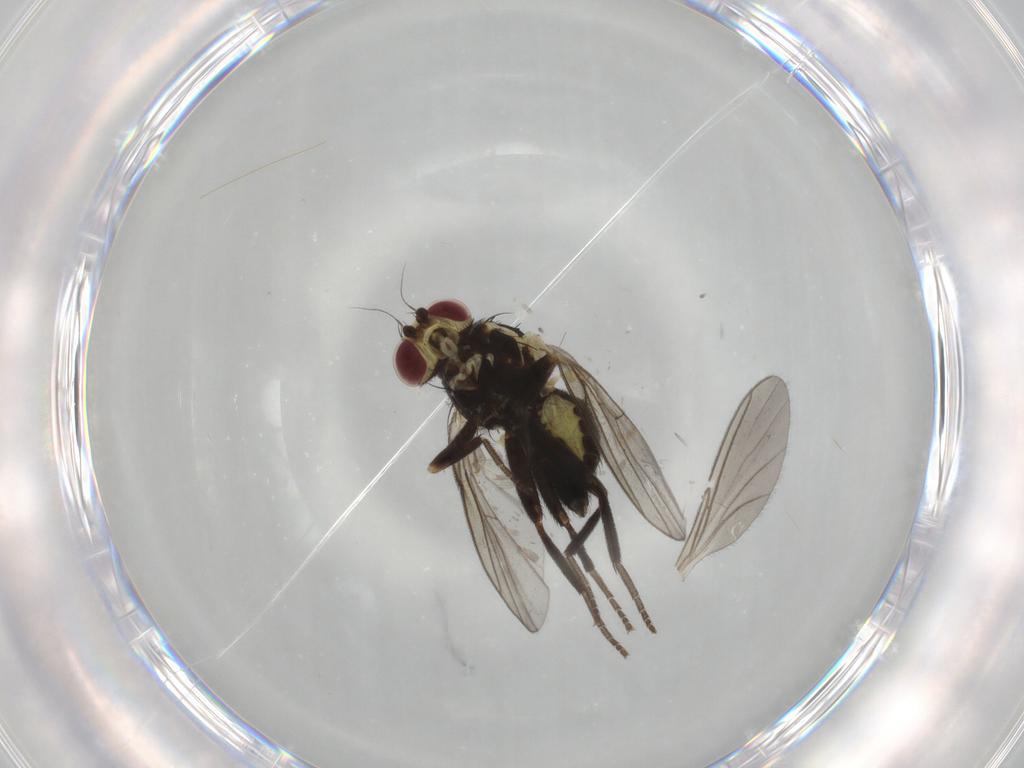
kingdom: Animalia
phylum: Arthropoda
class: Insecta
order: Diptera
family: Agromyzidae
